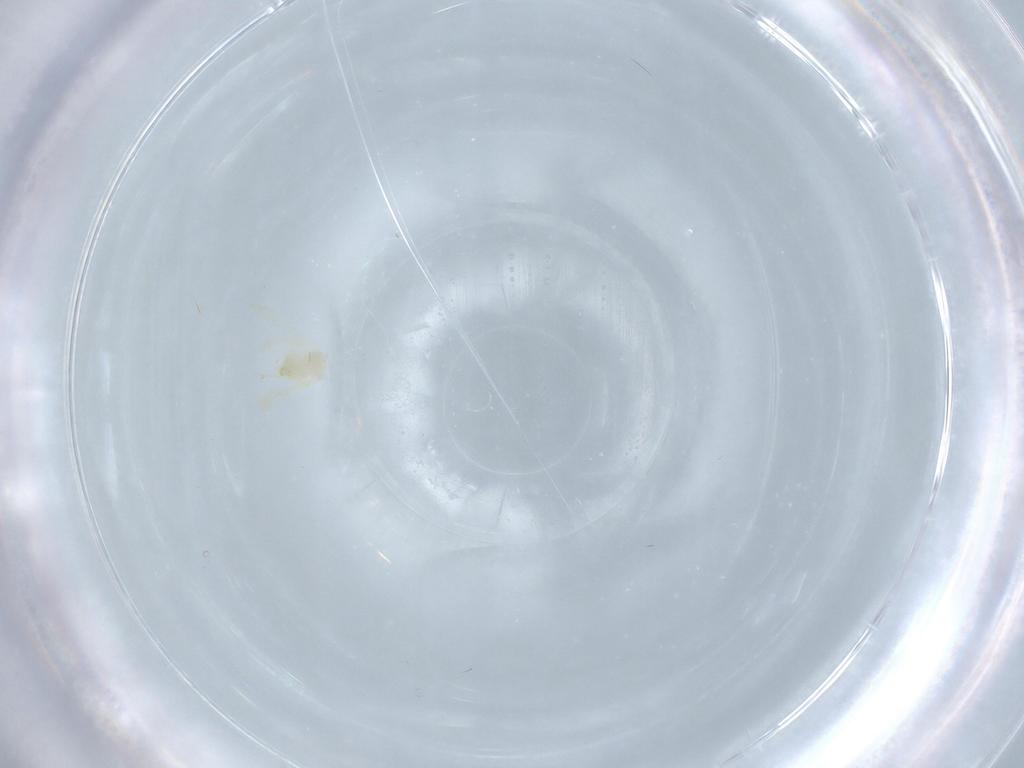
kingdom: Animalia
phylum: Arthropoda
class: Insecta
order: Hemiptera
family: Aleyrodidae
